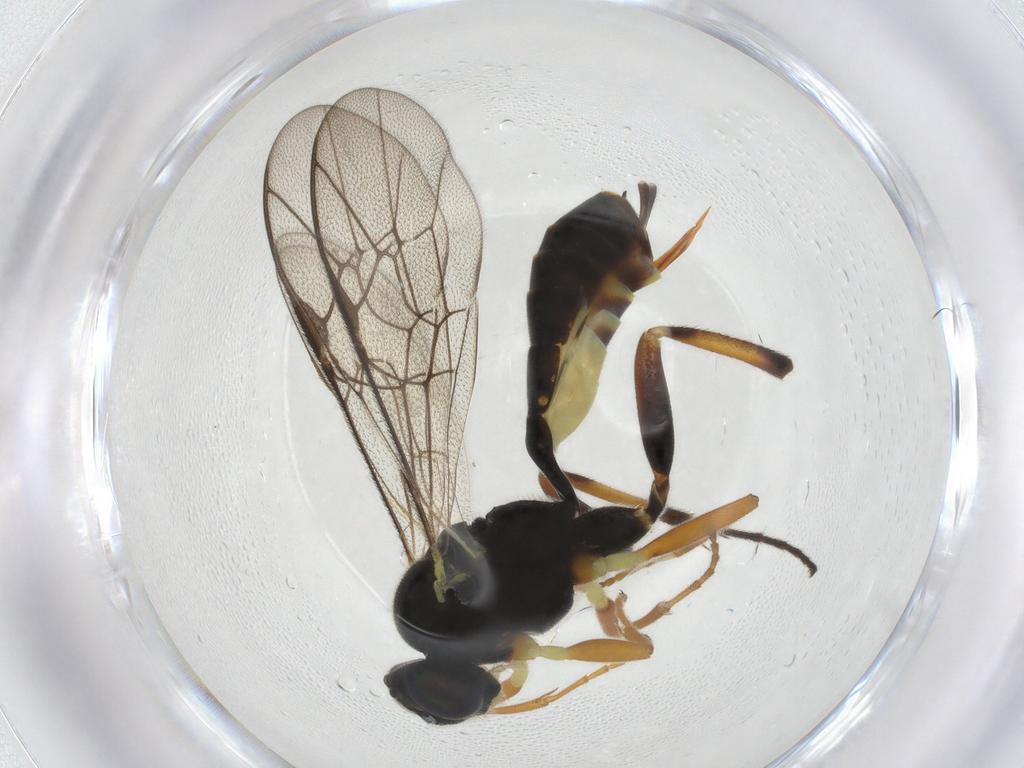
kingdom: Animalia
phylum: Arthropoda
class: Insecta
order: Hymenoptera
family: Ichneumonidae
